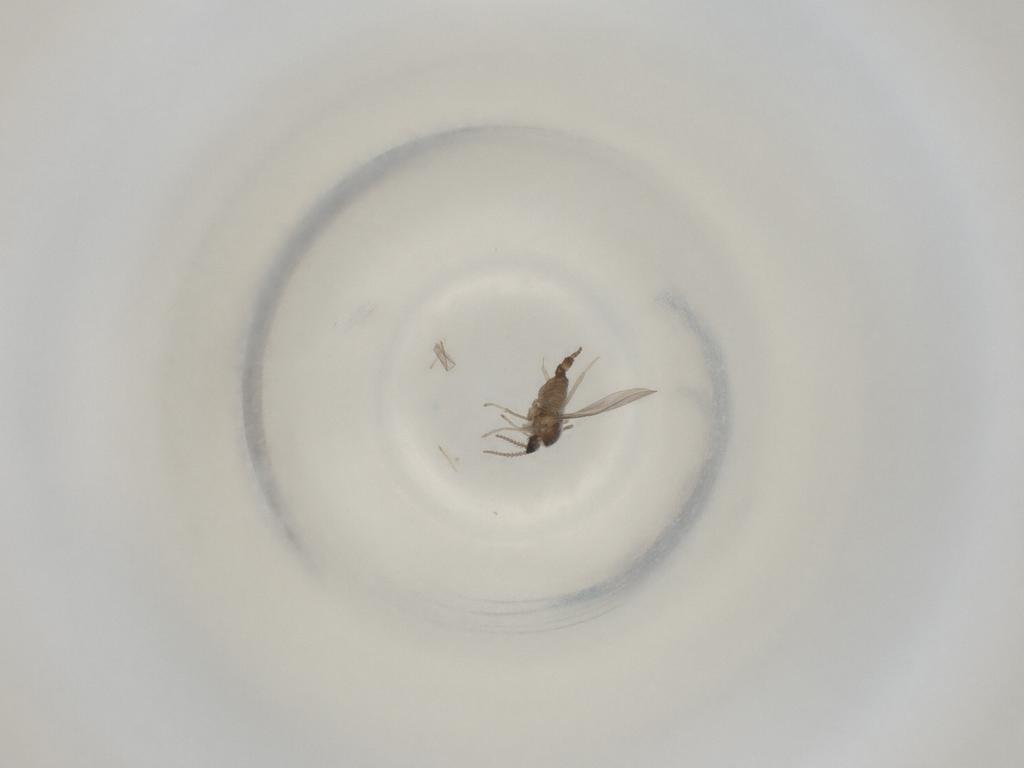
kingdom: Animalia
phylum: Arthropoda
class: Insecta
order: Diptera
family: Cecidomyiidae
